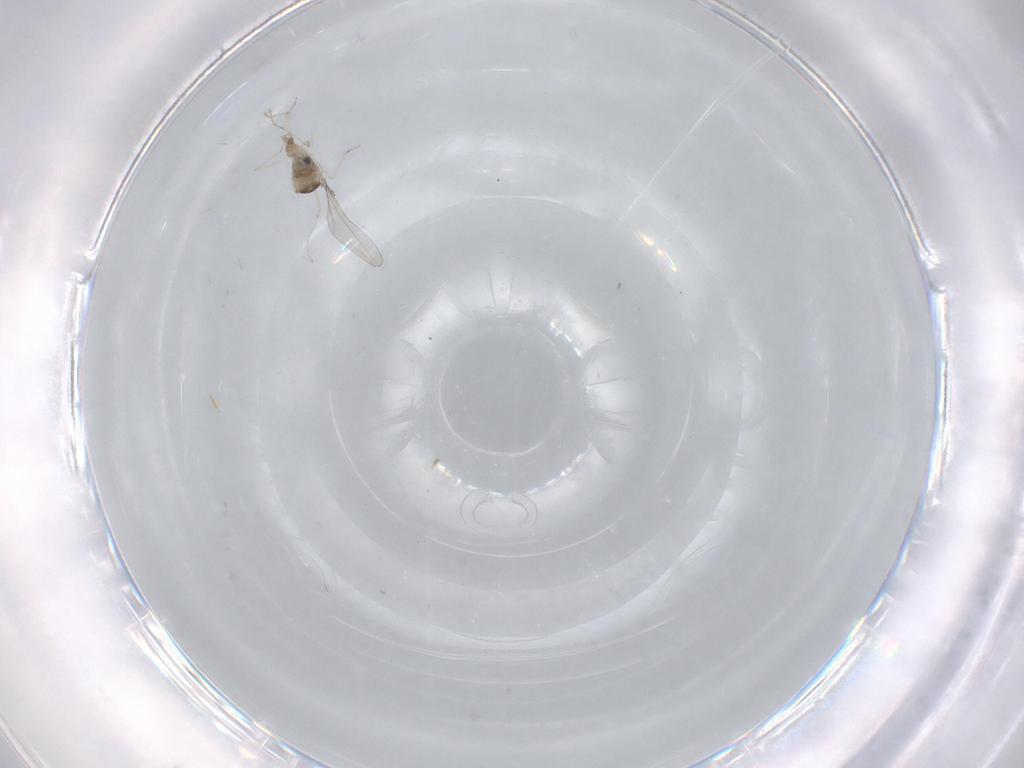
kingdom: Animalia
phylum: Arthropoda
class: Insecta
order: Diptera
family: Cecidomyiidae
